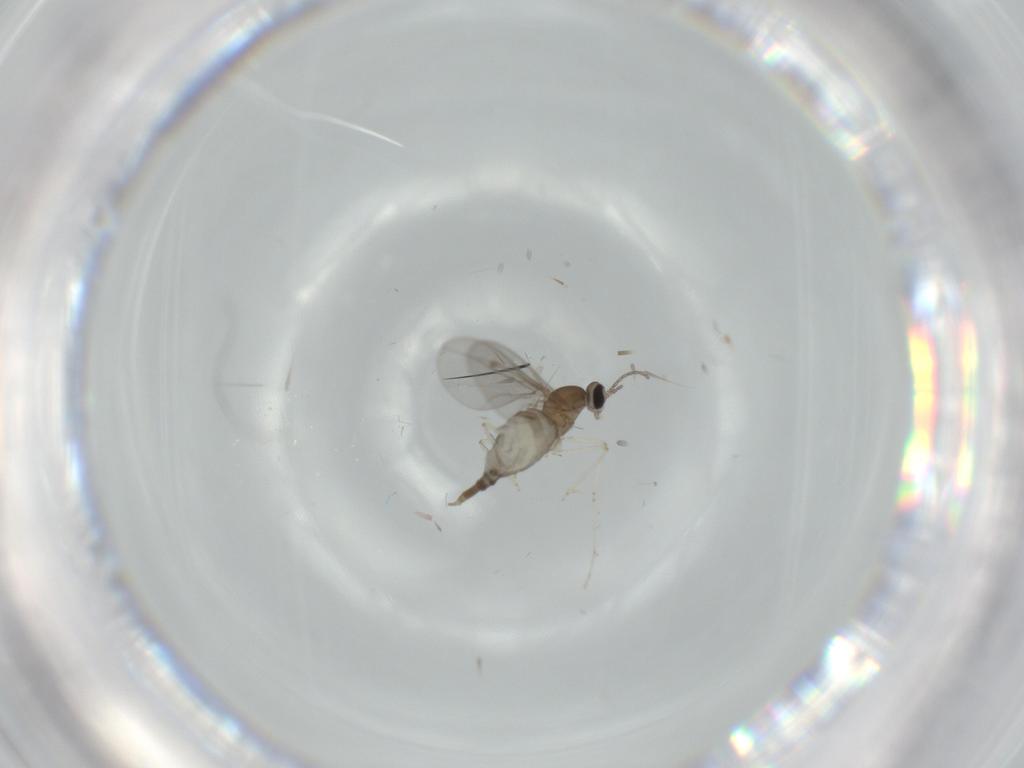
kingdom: Animalia
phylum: Arthropoda
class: Insecta
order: Diptera
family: Cecidomyiidae
